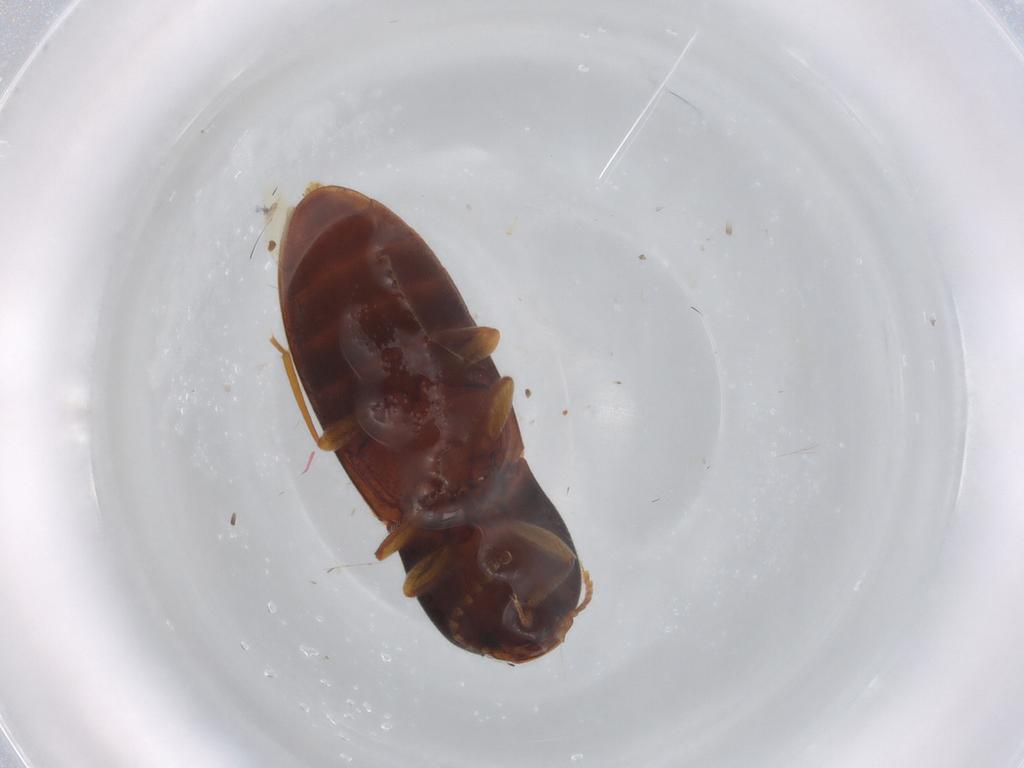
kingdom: Animalia
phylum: Arthropoda
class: Insecta
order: Coleoptera
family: Elateridae
